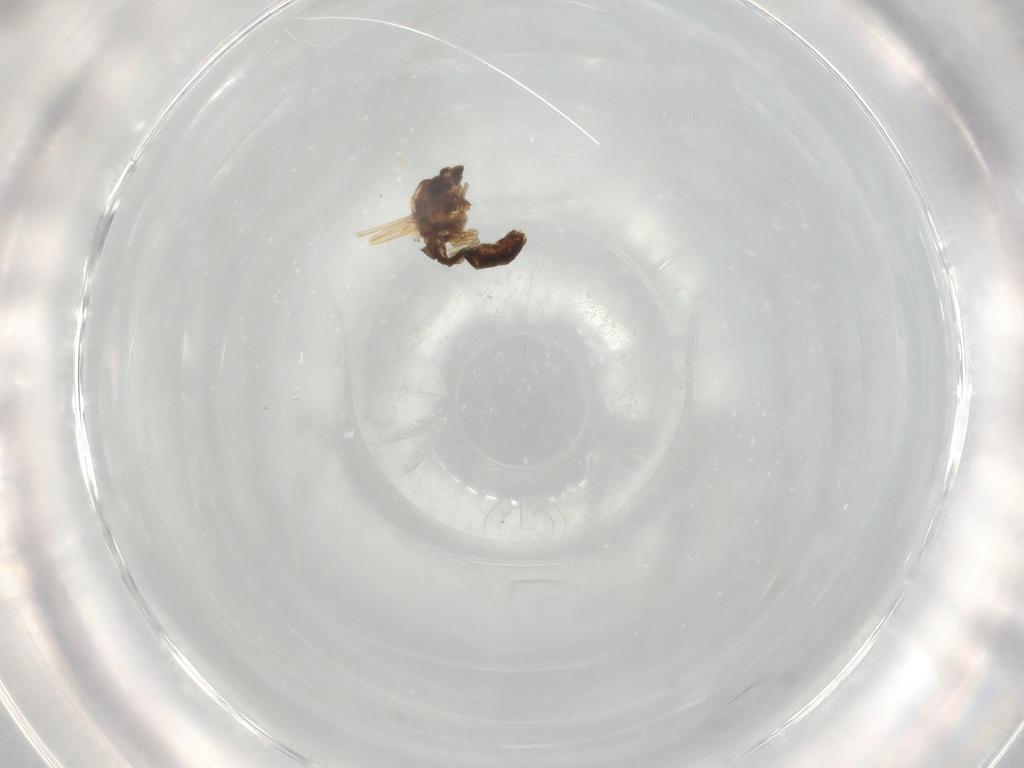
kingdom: Animalia
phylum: Arthropoda
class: Insecta
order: Diptera
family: Chironomidae
